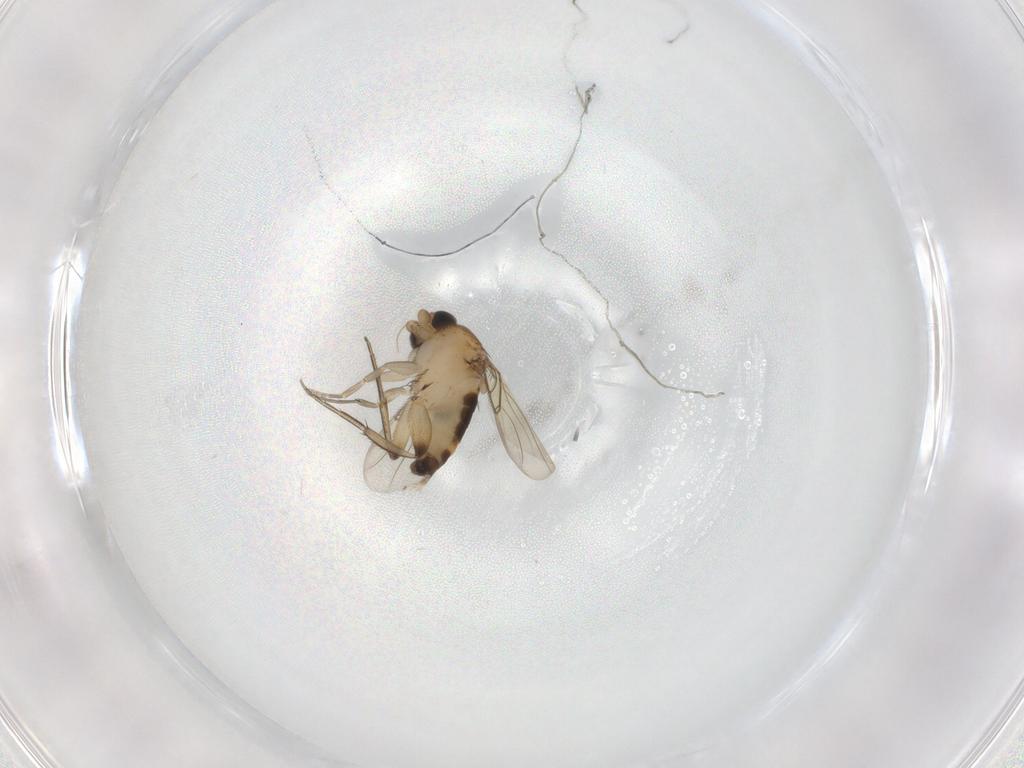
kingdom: Animalia
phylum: Arthropoda
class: Insecta
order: Diptera
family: Phoridae
